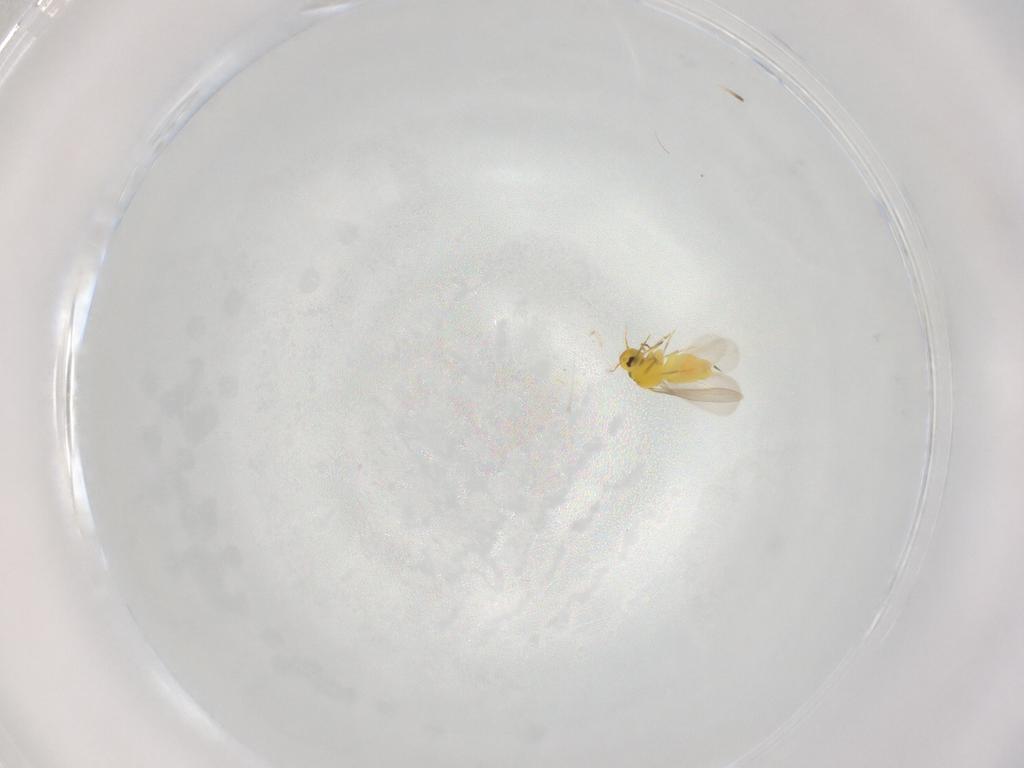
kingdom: Animalia
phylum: Arthropoda
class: Insecta
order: Hemiptera
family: Aleyrodidae
